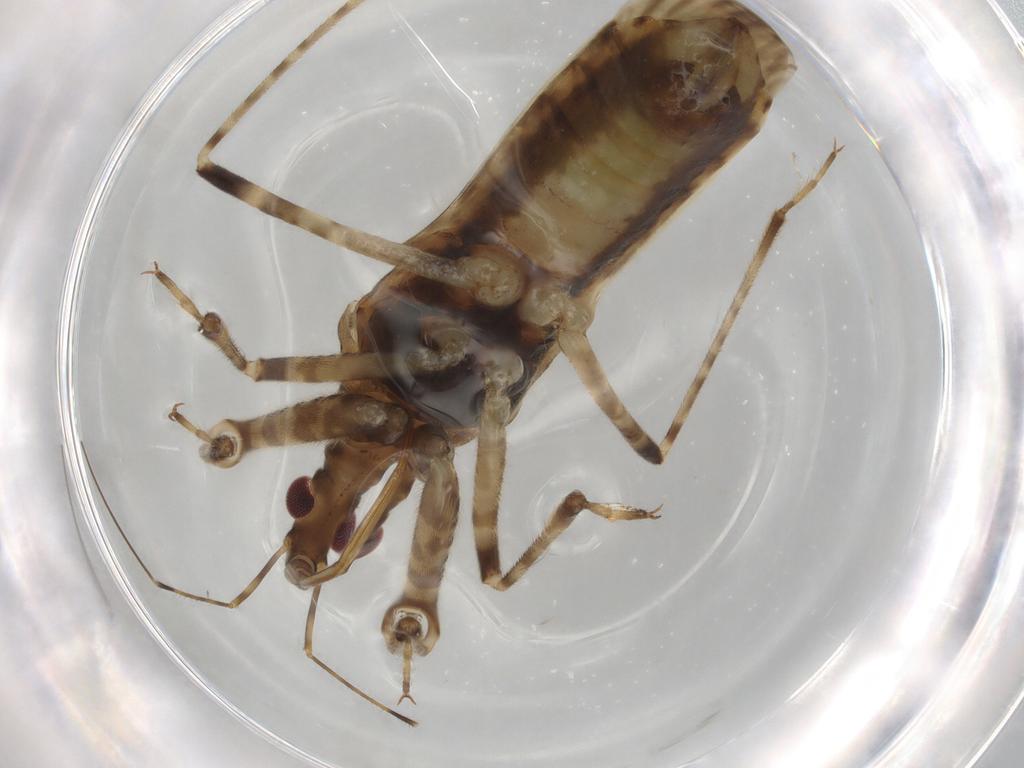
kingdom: Animalia
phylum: Arthropoda
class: Insecta
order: Hemiptera
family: Nabidae
